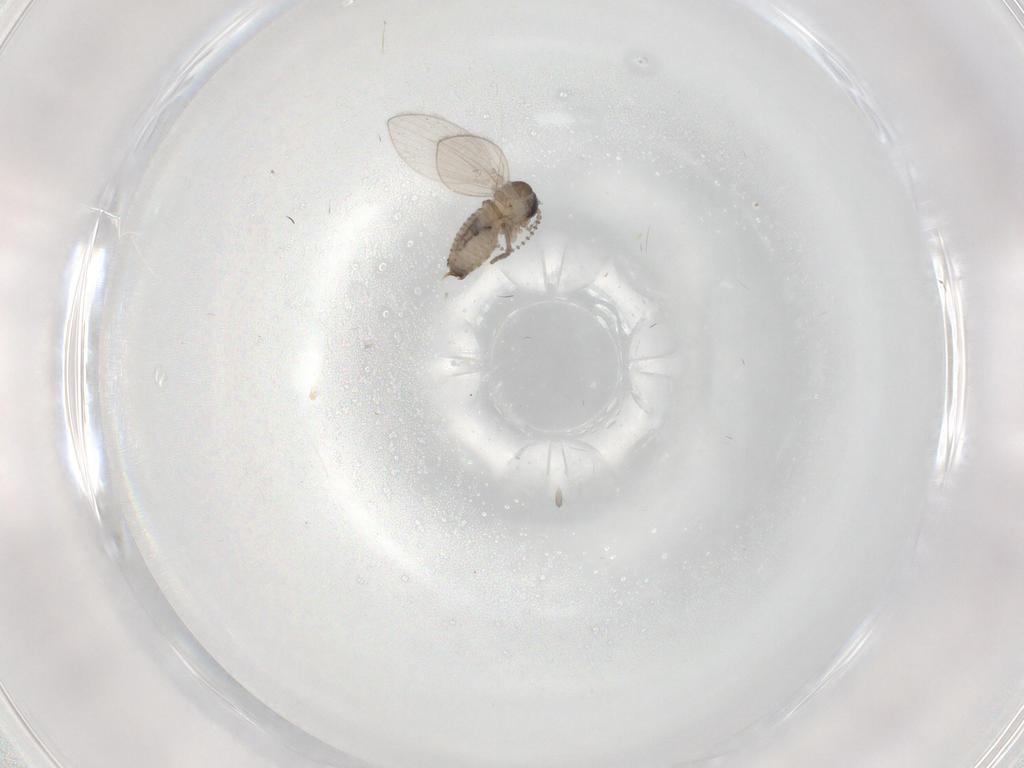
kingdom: Animalia
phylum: Arthropoda
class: Insecta
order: Diptera
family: Psychodidae
